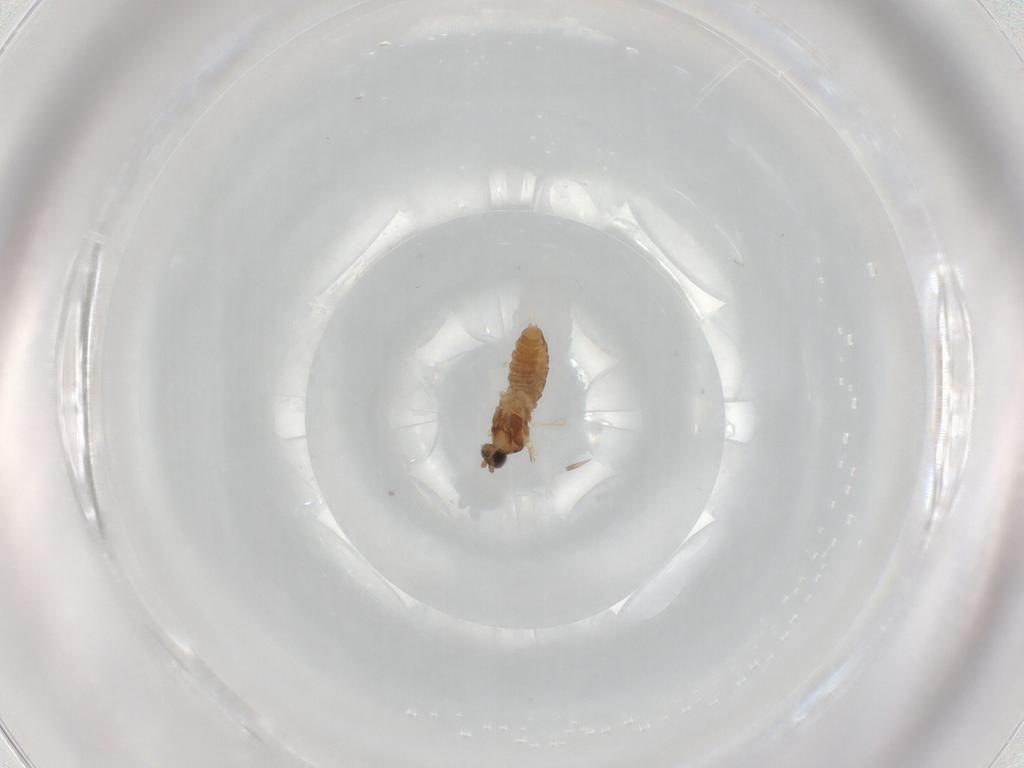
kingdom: Animalia
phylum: Arthropoda
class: Insecta
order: Diptera
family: Cecidomyiidae
